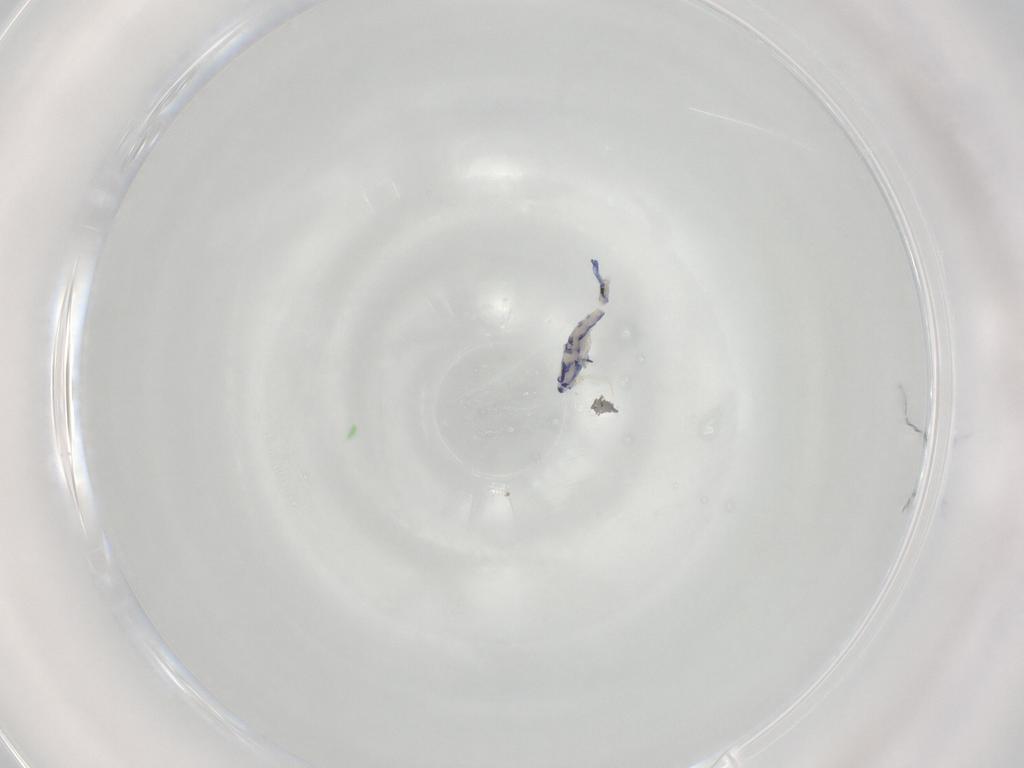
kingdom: Animalia
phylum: Arthropoda
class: Collembola
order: Entomobryomorpha
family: Entomobryidae
